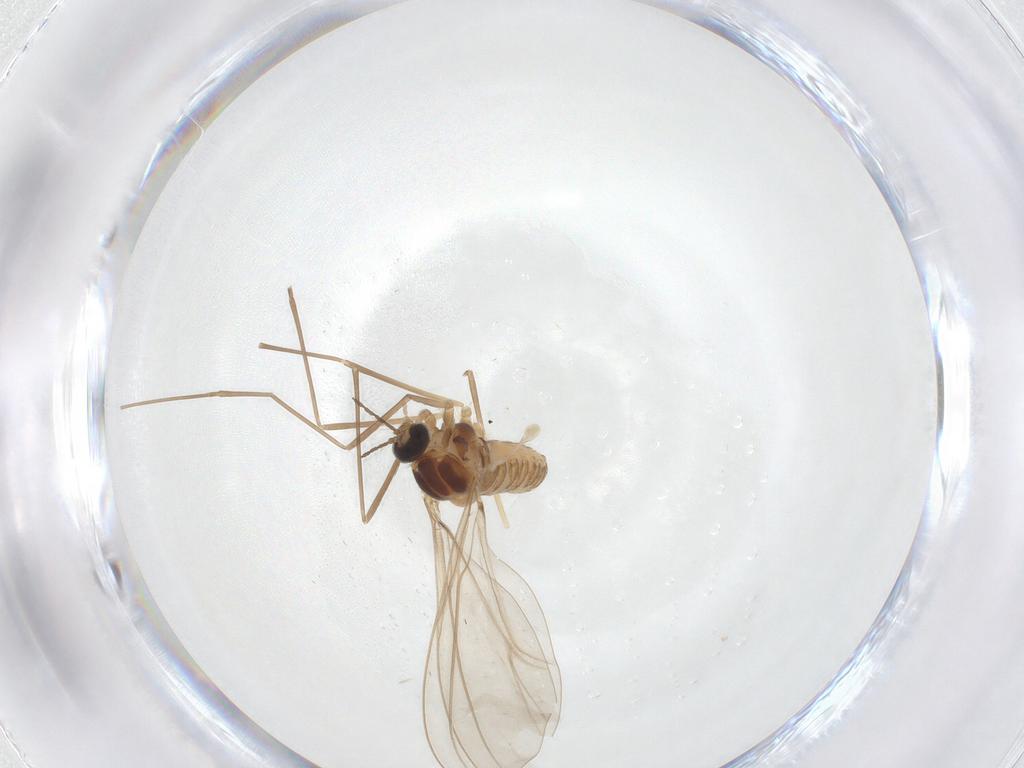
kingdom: Animalia
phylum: Arthropoda
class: Insecta
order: Diptera
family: Cecidomyiidae
